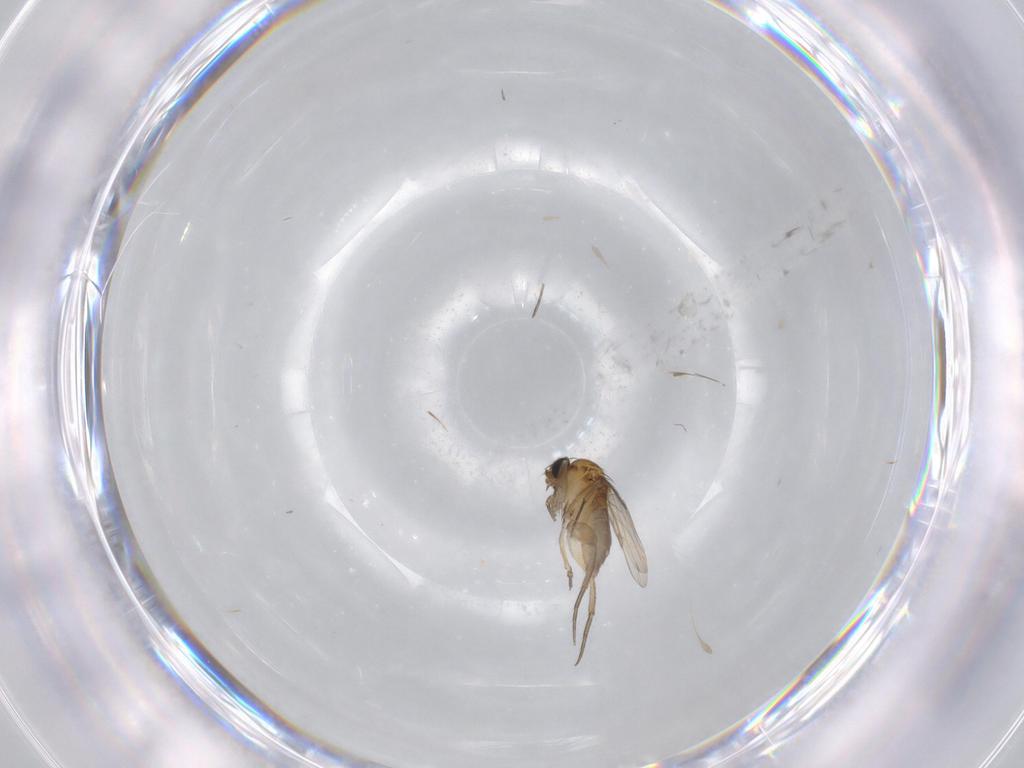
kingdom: Animalia
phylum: Arthropoda
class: Insecta
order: Diptera
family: Phoridae
